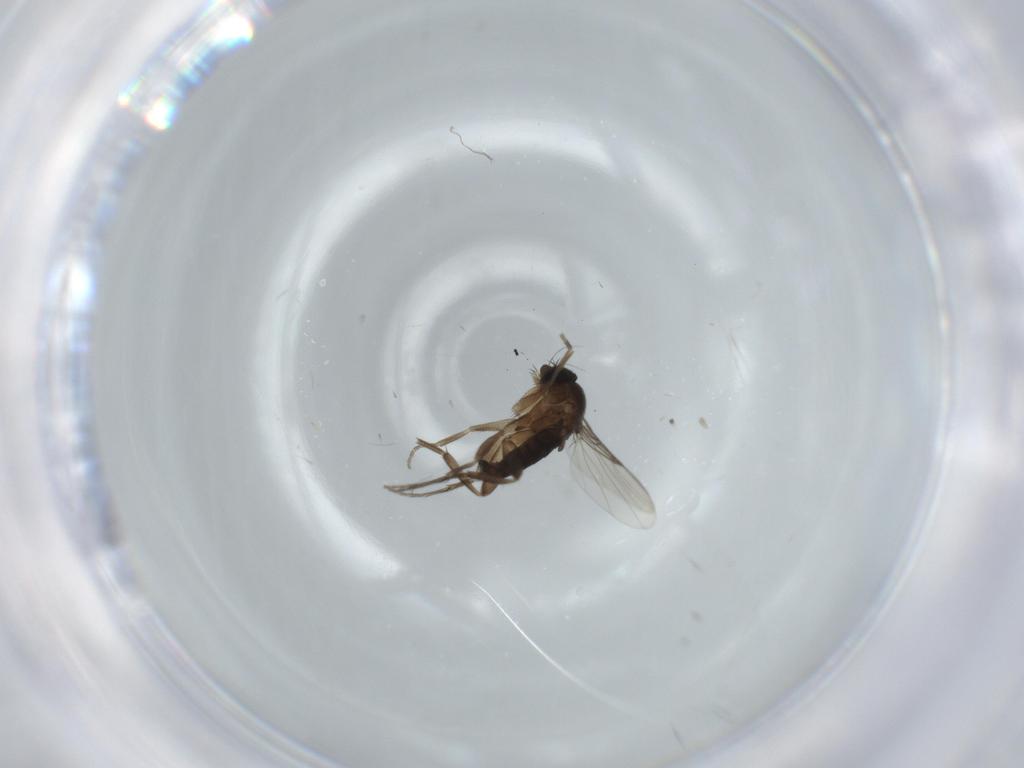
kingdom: Animalia
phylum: Arthropoda
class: Insecta
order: Diptera
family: Phoridae
